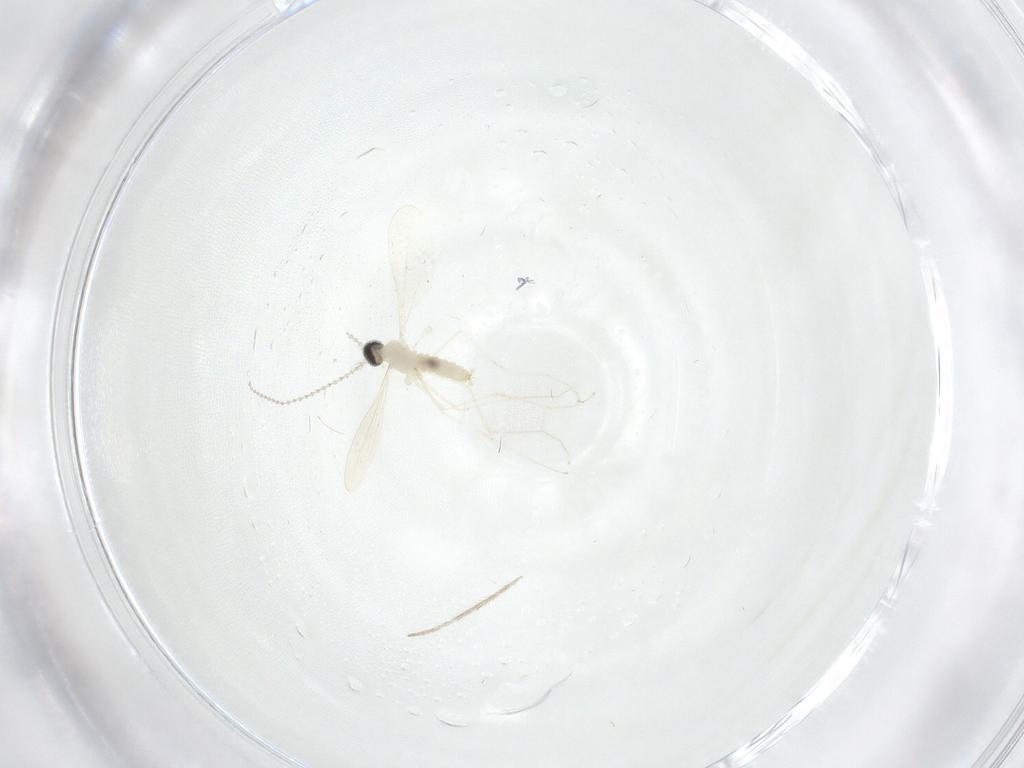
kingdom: Animalia
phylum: Arthropoda
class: Insecta
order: Diptera
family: Cecidomyiidae
